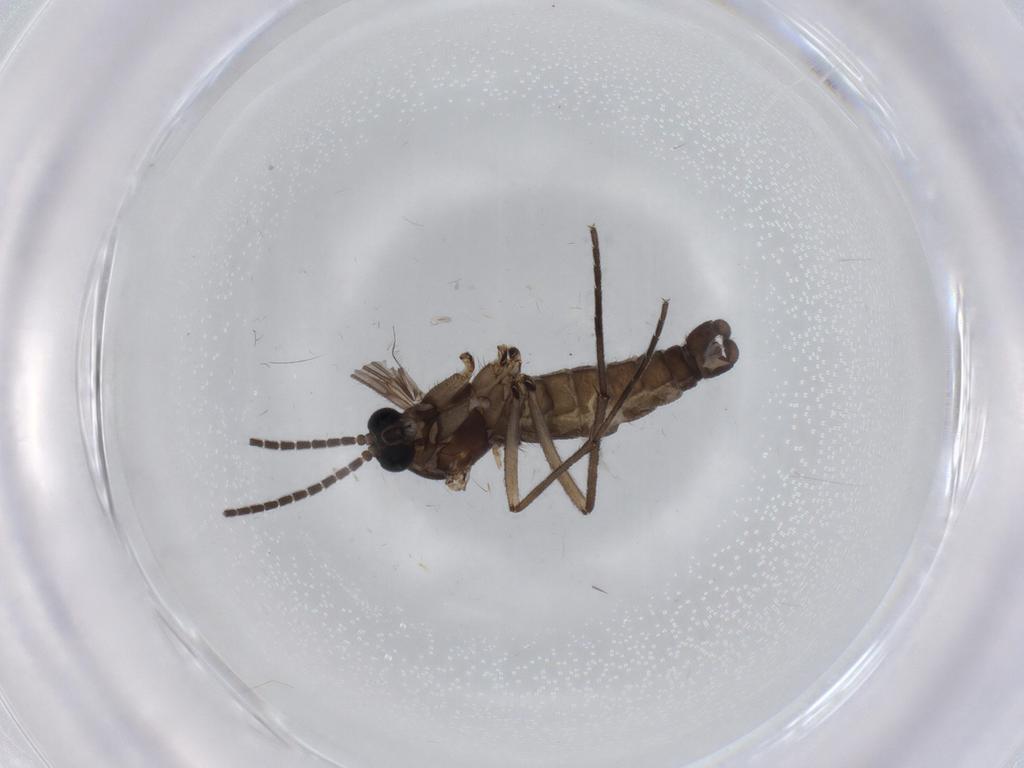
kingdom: Animalia
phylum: Arthropoda
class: Insecta
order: Diptera
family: Sciaridae
